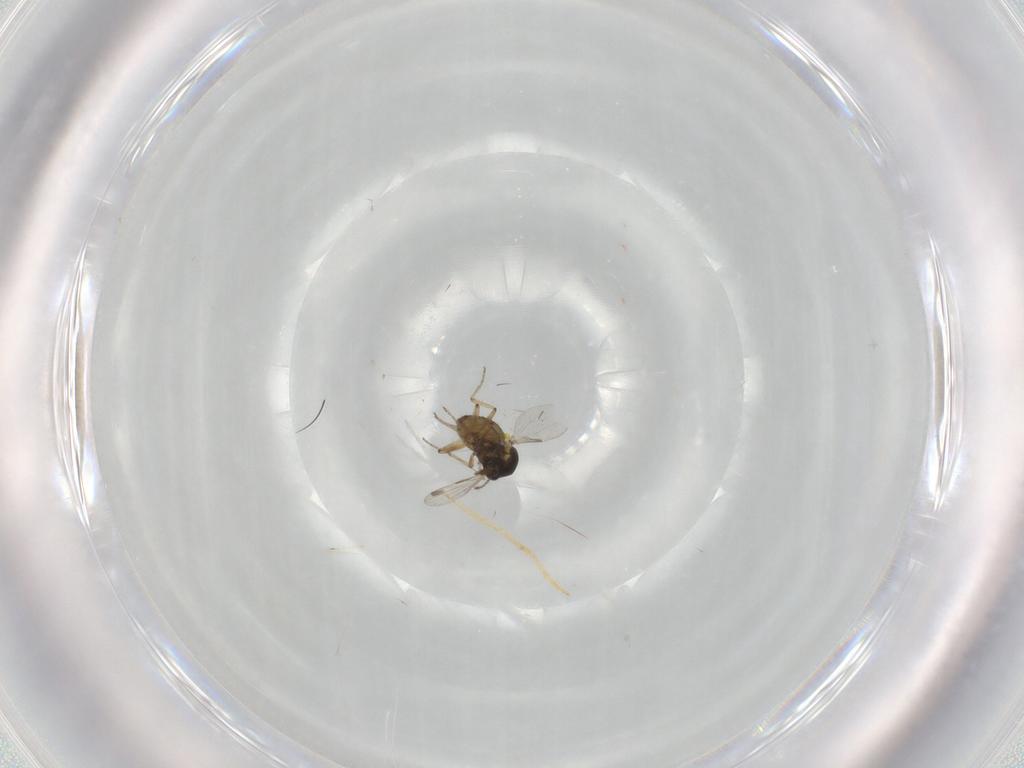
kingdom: Animalia
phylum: Arthropoda
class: Insecta
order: Diptera
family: Ceratopogonidae
